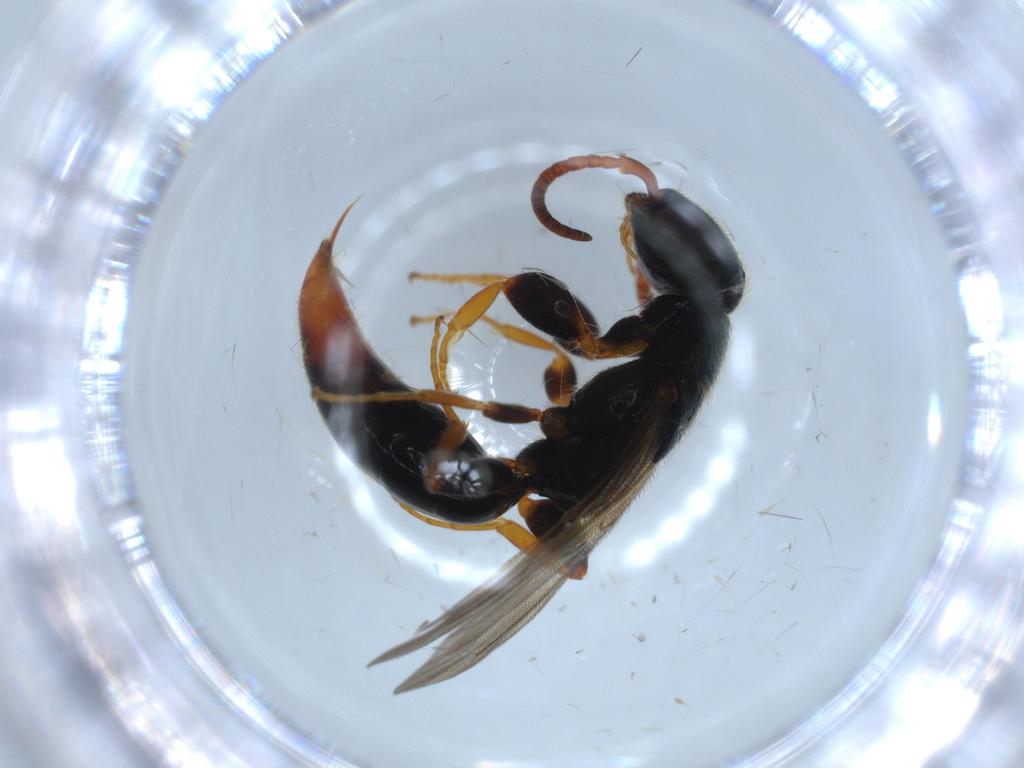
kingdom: Animalia
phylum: Arthropoda
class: Insecta
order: Hymenoptera
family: Bethylidae
